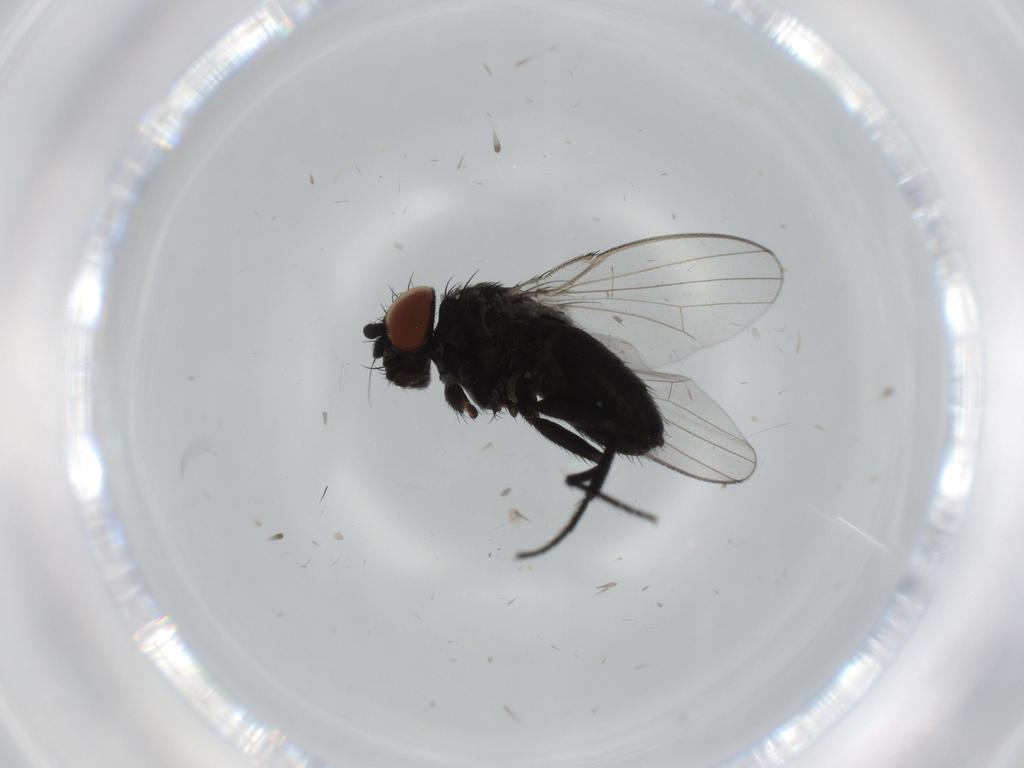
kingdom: Animalia
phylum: Arthropoda
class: Insecta
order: Diptera
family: Milichiidae
